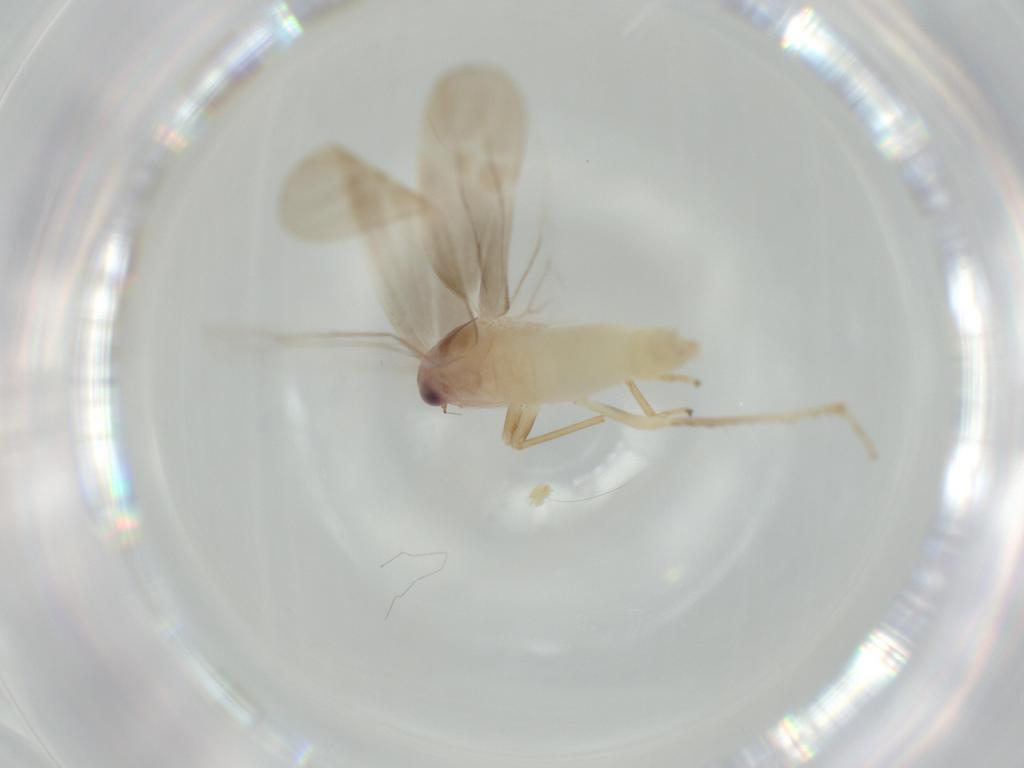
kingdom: Animalia
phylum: Arthropoda
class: Insecta
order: Hemiptera
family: Cicadellidae
